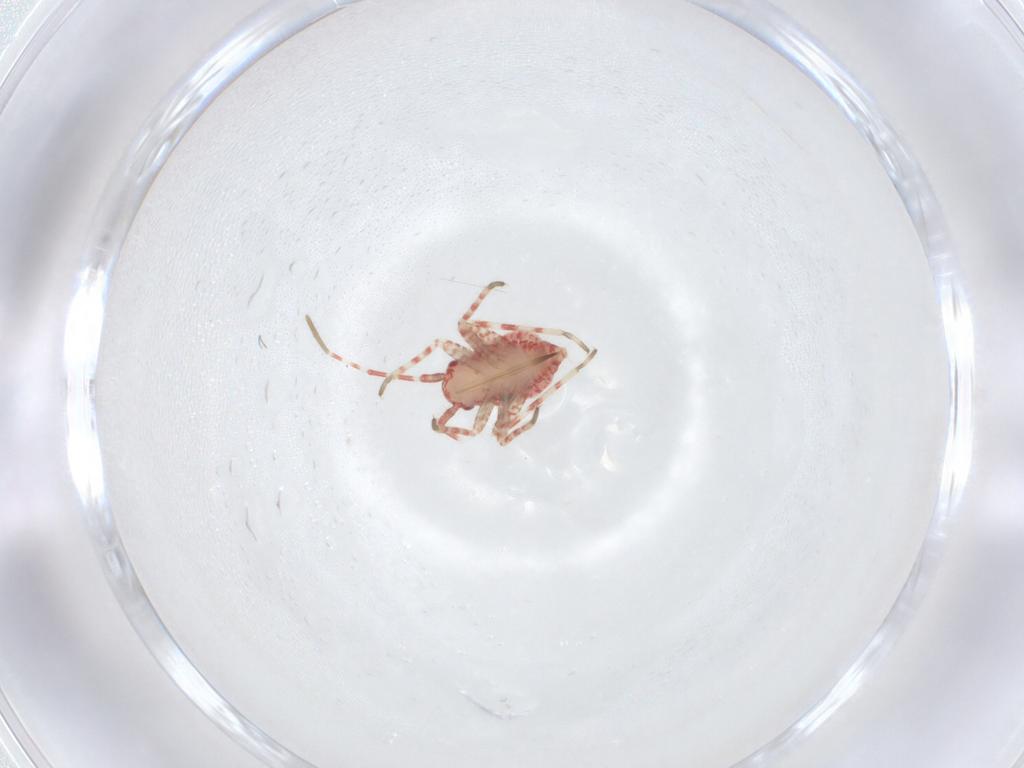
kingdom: Animalia
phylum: Arthropoda
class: Insecta
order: Hemiptera
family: Miridae
